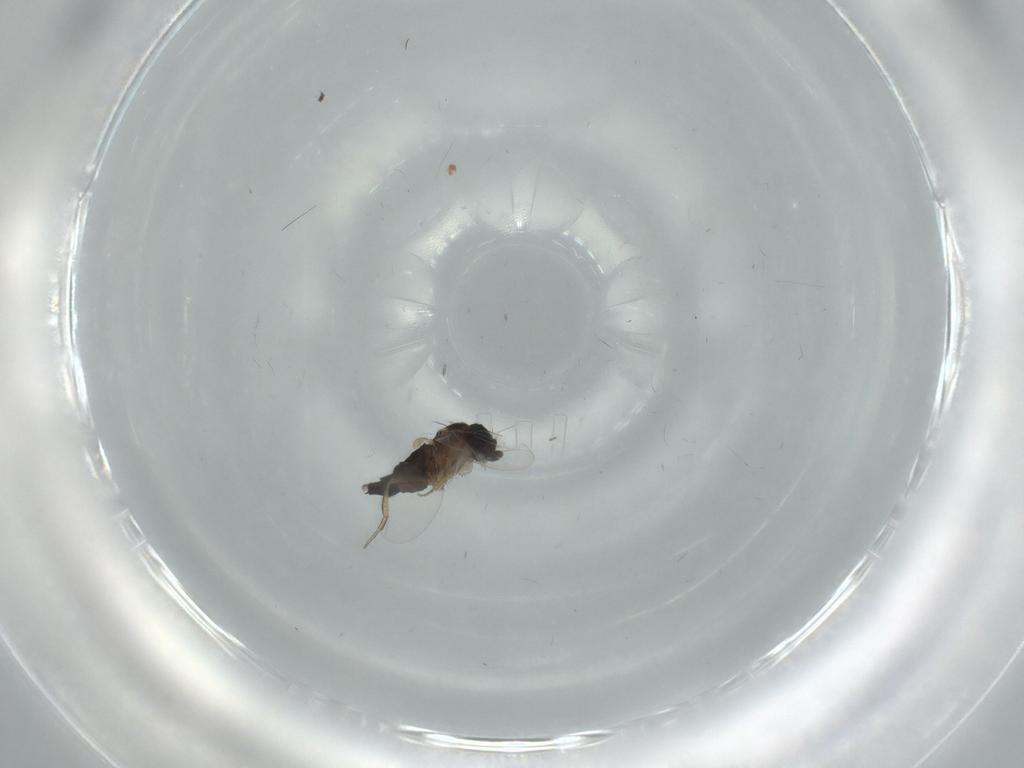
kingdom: Animalia
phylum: Arthropoda
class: Insecta
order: Diptera
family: Phoridae
